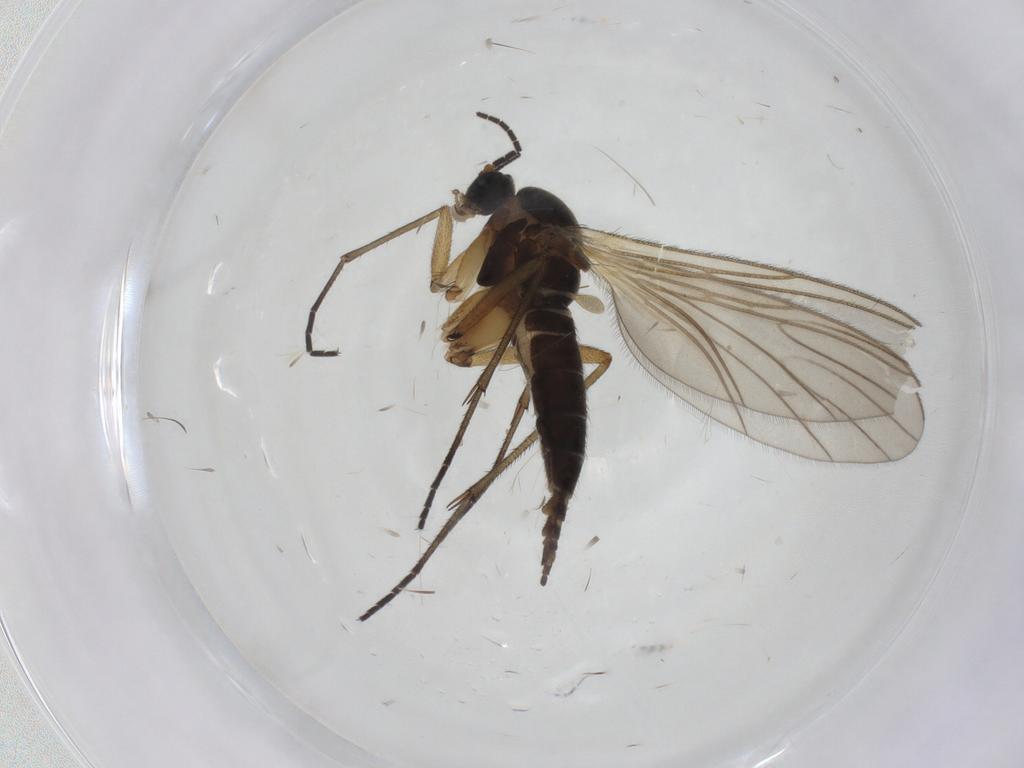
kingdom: Animalia
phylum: Arthropoda
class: Insecta
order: Diptera
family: Sciaridae
